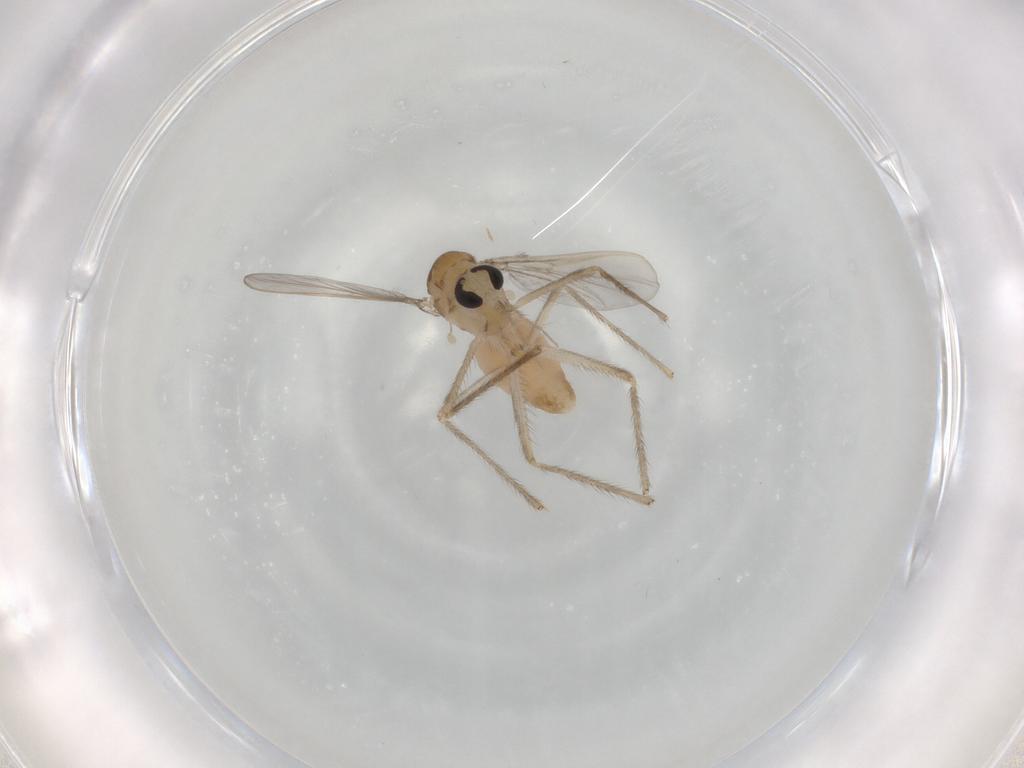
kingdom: Animalia
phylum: Arthropoda
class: Insecta
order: Diptera
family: Chironomidae
